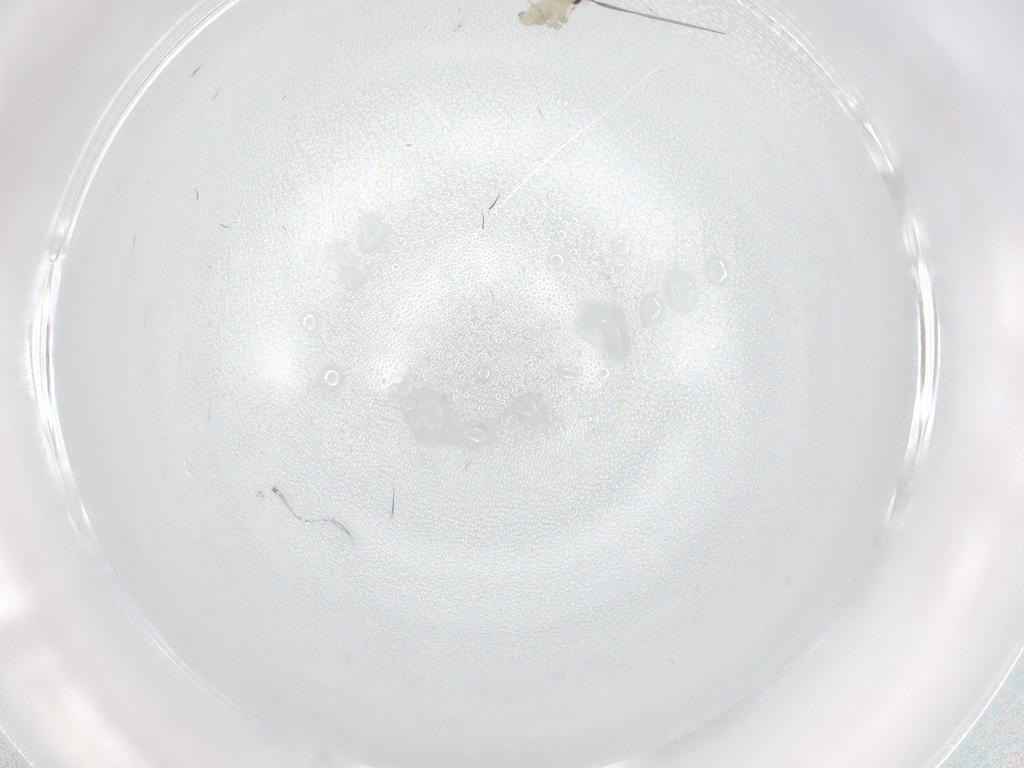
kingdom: Animalia
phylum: Arthropoda
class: Insecta
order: Diptera
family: Cecidomyiidae
